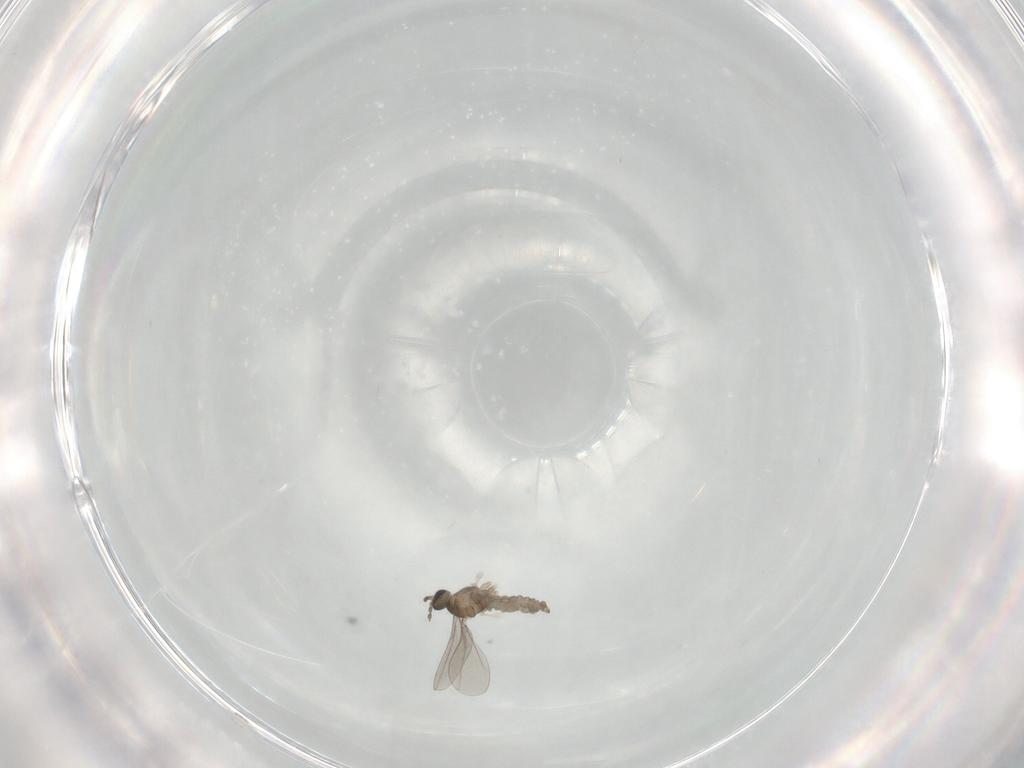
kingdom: Animalia
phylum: Arthropoda
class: Insecta
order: Diptera
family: Cecidomyiidae
